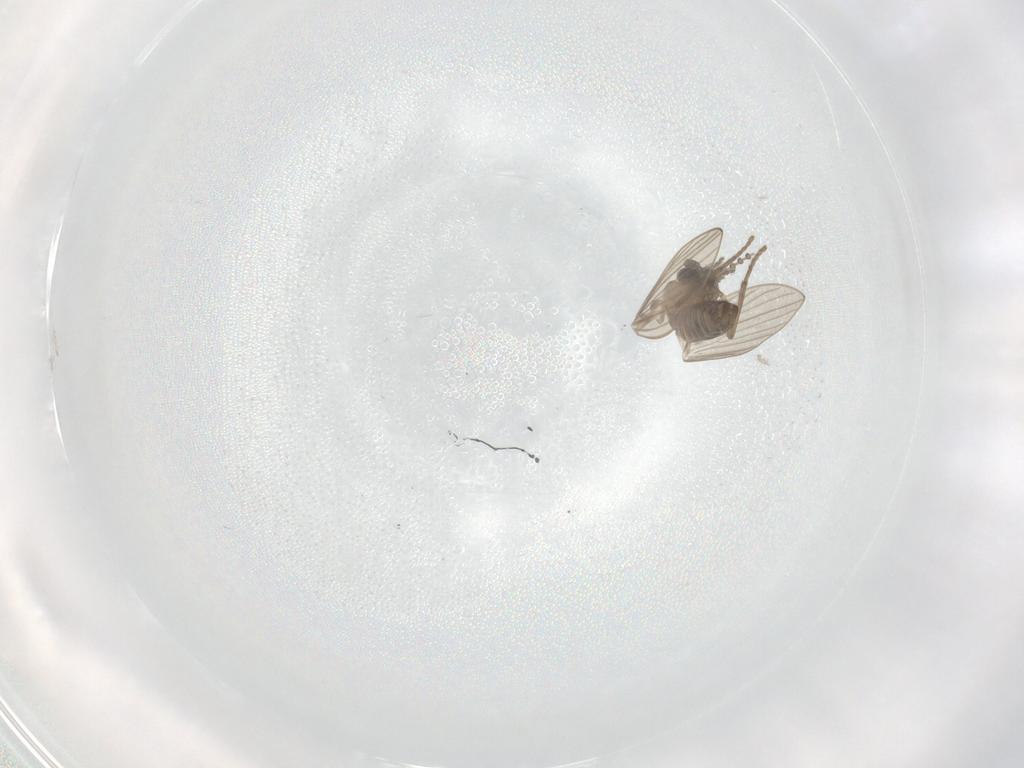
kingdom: Animalia
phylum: Arthropoda
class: Insecta
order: Diptera
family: Psychodidae
